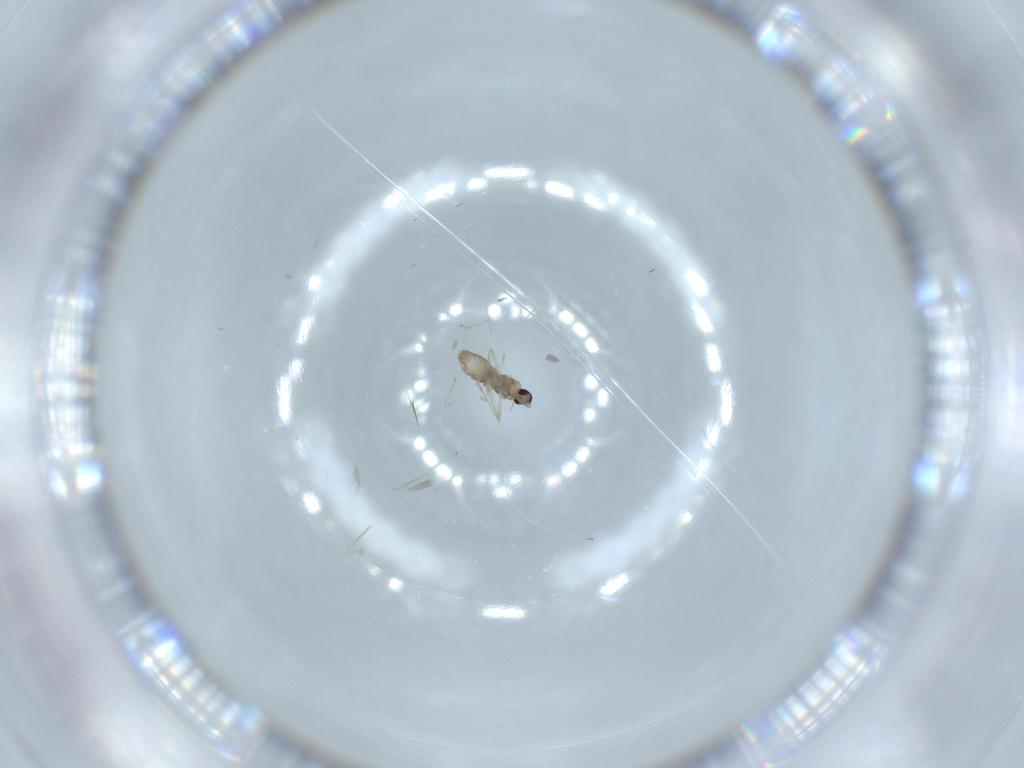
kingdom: Animalia
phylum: Arthropoda
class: Insecta
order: Diptera
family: Cecidomyiidae
